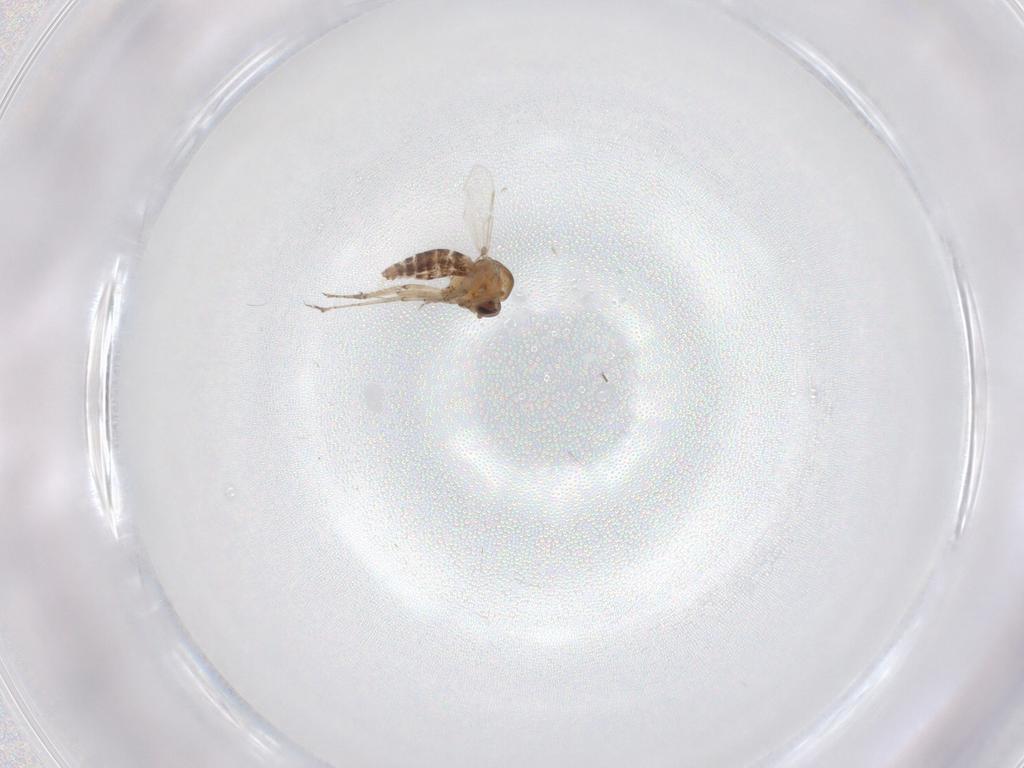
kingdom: Animalia
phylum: Arthropoda
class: Insecta
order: Diptera
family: Ceratopogonidae
